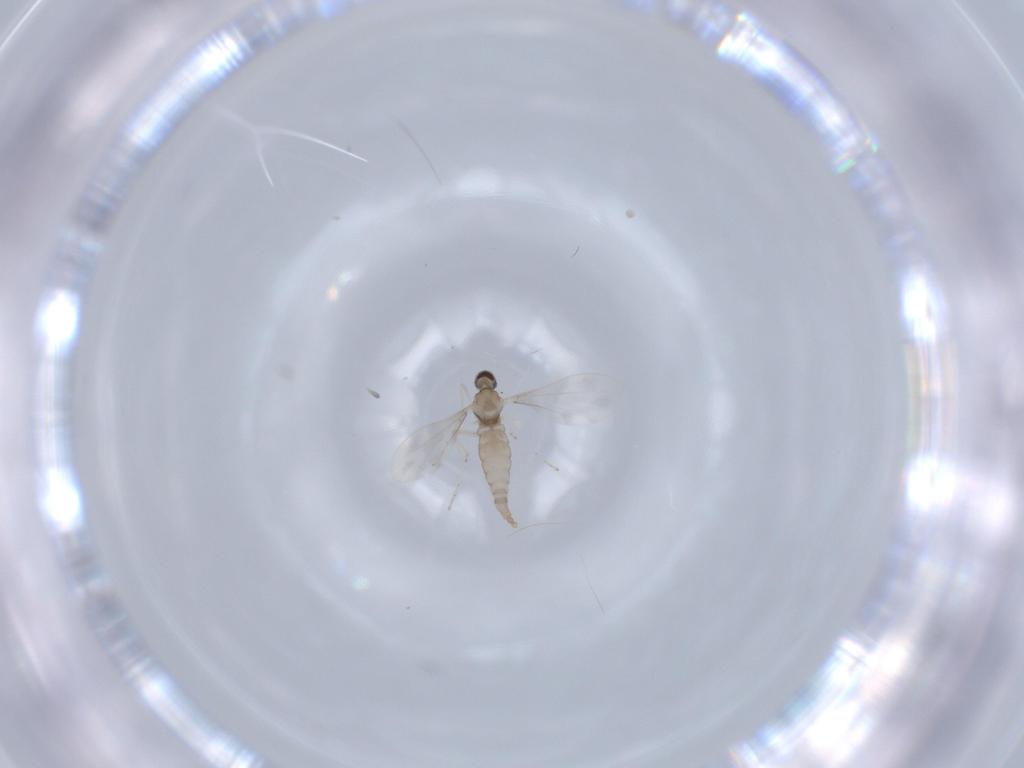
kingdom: Animalia
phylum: Arthropoda
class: Insecta
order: Diptera
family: Cecidomyiidae
